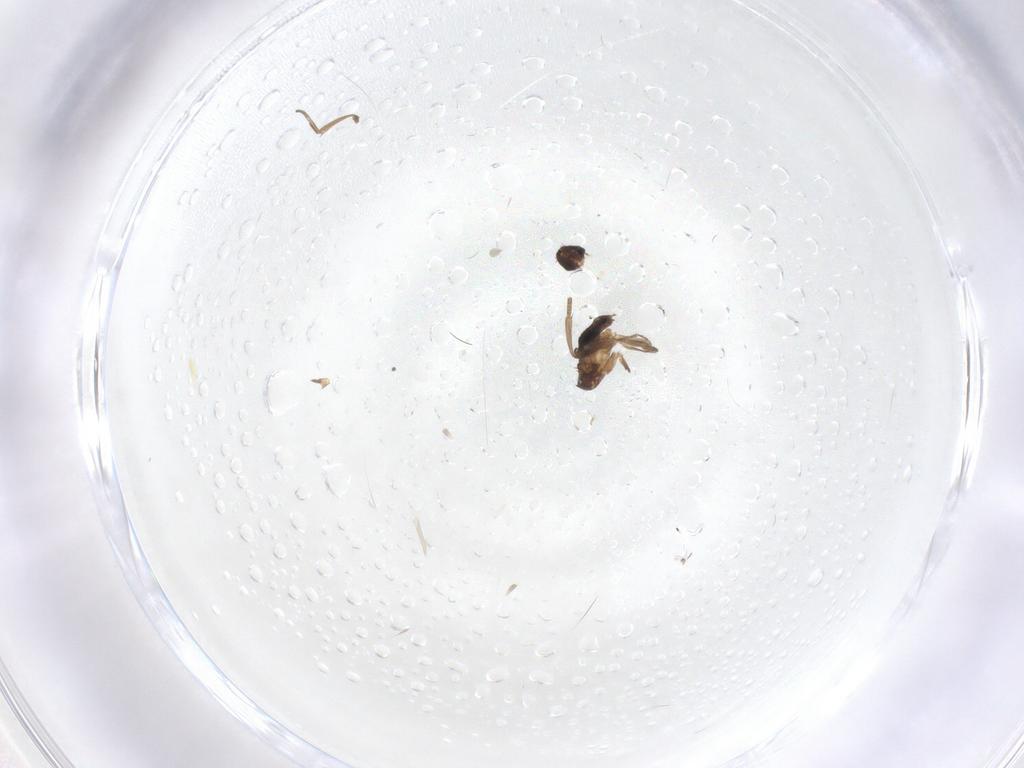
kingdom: Animalia
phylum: Arthropoda
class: Insecta
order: Diptera
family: Phoridae
